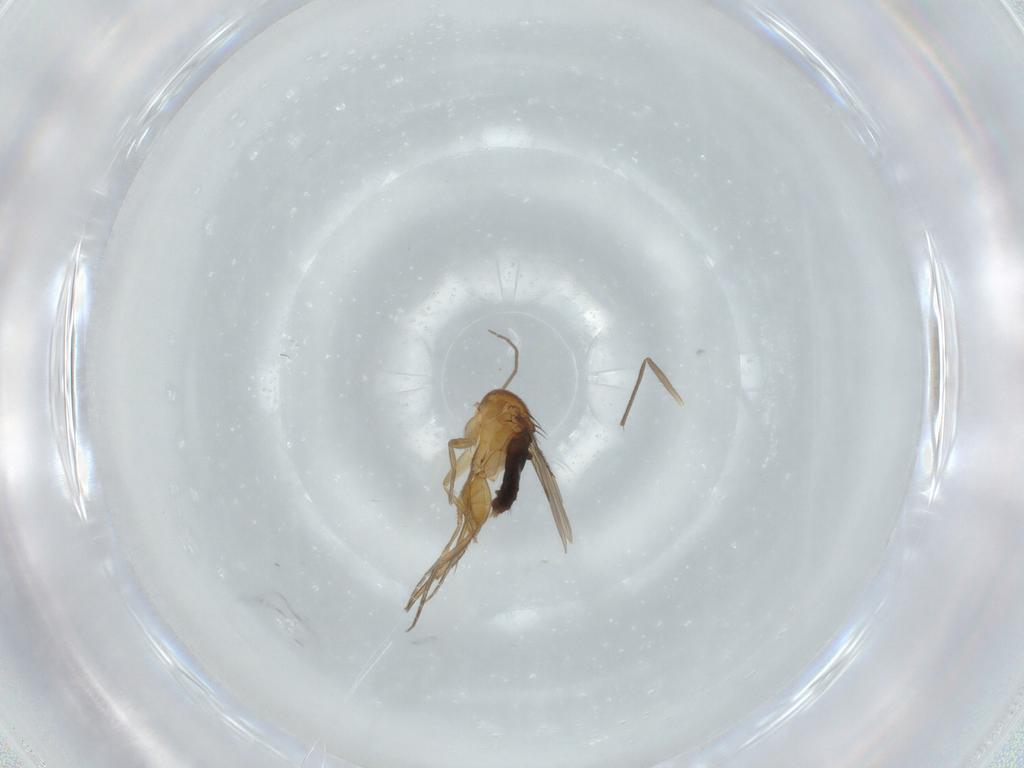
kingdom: Animalia
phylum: Arthropoda
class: Insecta
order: Diptera
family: Phoridae
